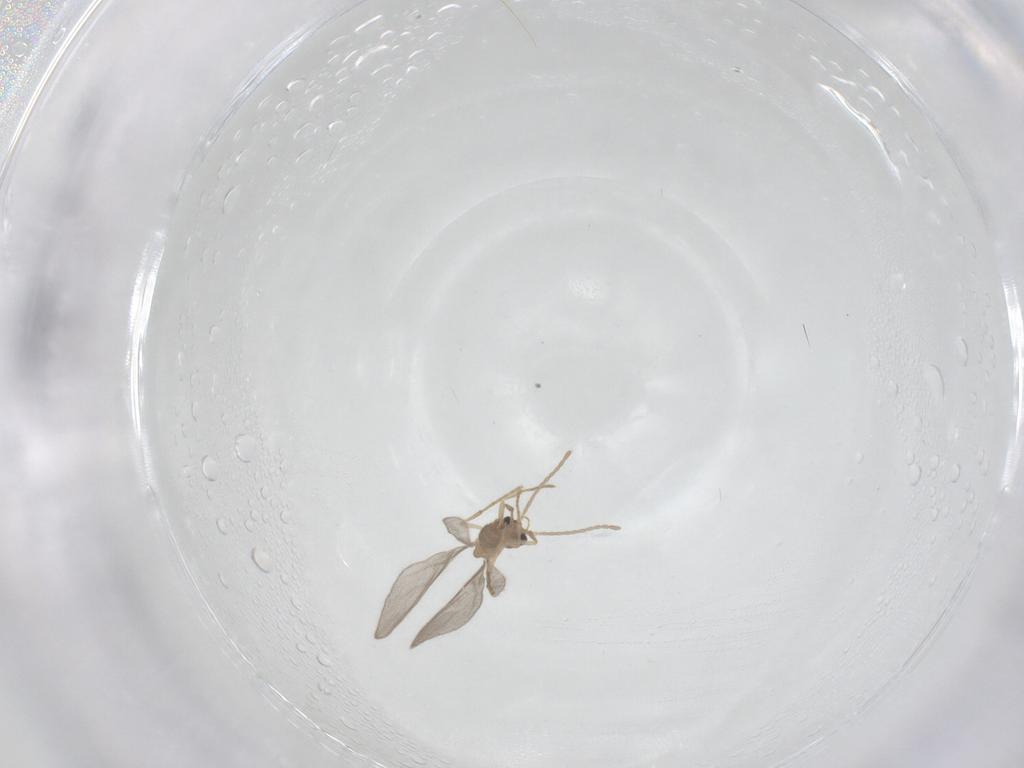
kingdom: Animalia
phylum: Arthropoda
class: Insecta
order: Hymenoptera
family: Formicidae
